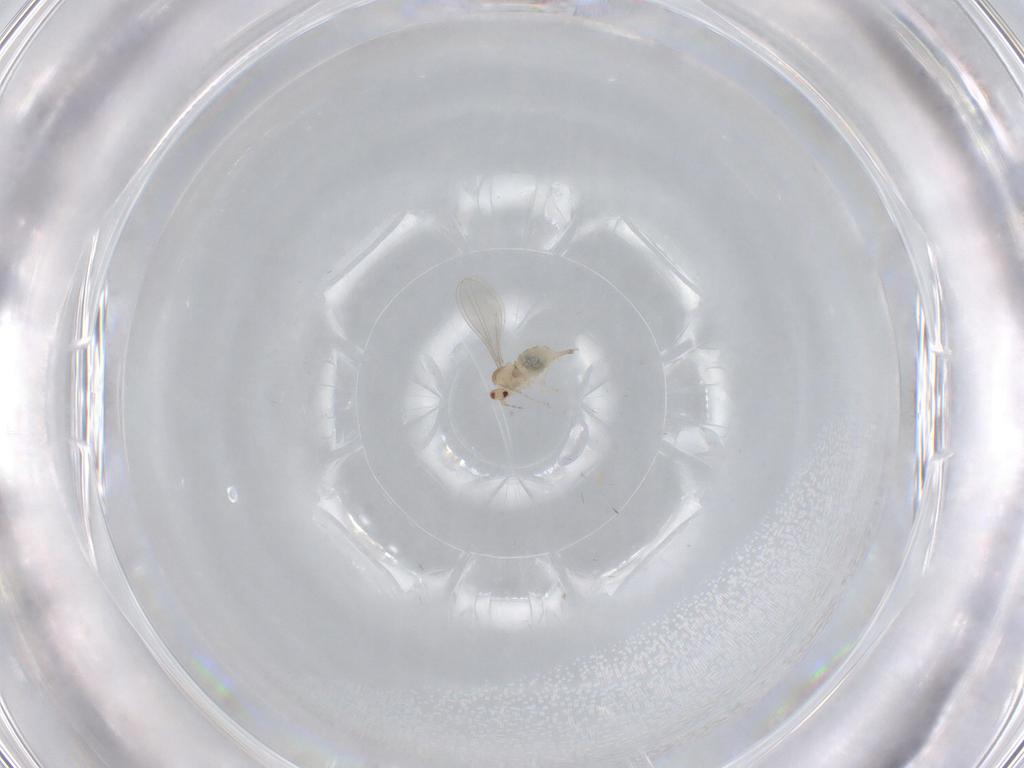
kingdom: Animalia
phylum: Arthropoda
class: Insecta
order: Diptera
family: Cecidomyiidae
